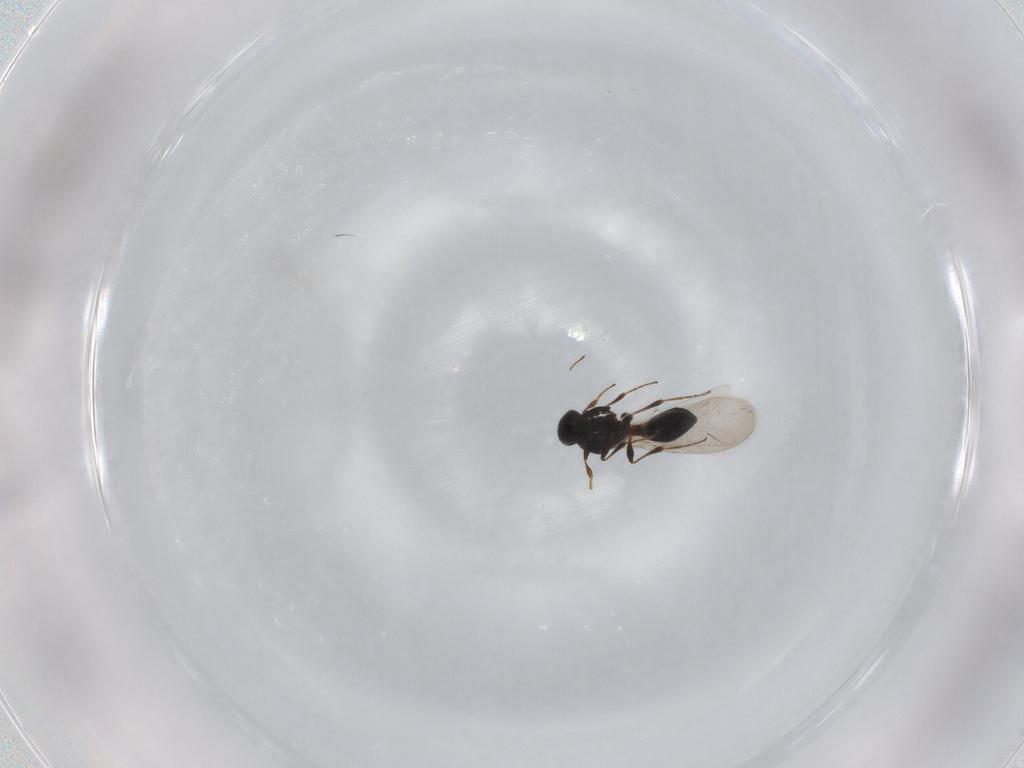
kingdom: Animalia
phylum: Arthropoda
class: Insecta
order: Hymenoptera
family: Platygastridae
